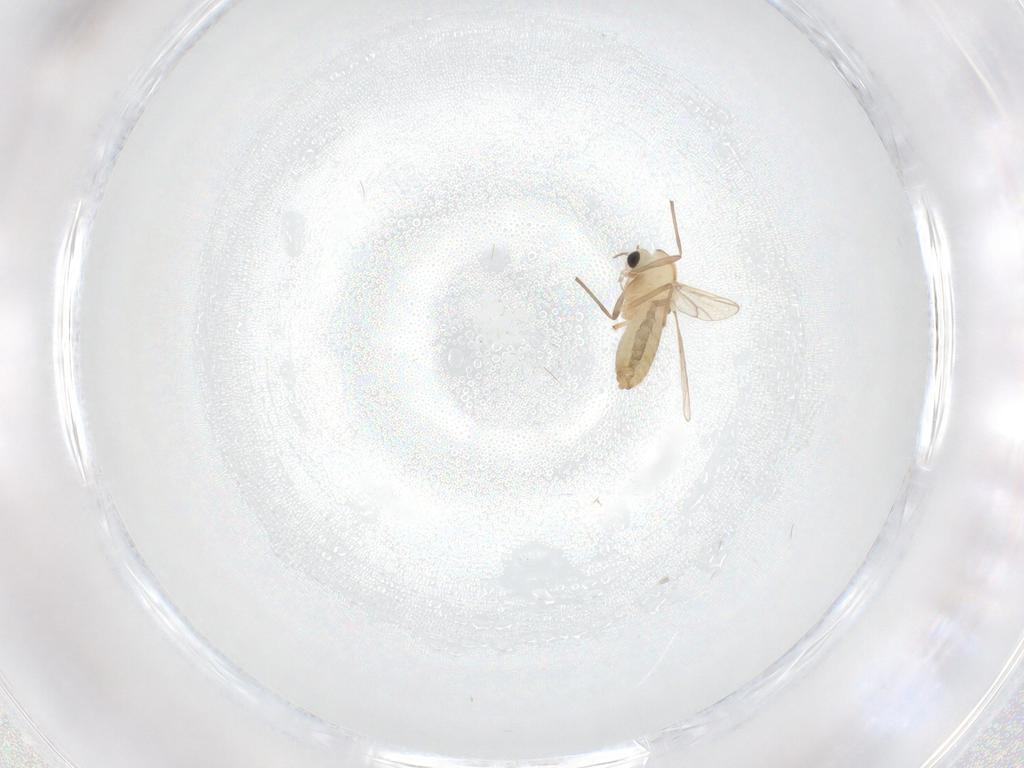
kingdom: Animalia
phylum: Arthropoda
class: Insecta
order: Diptera
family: Chironomidae
